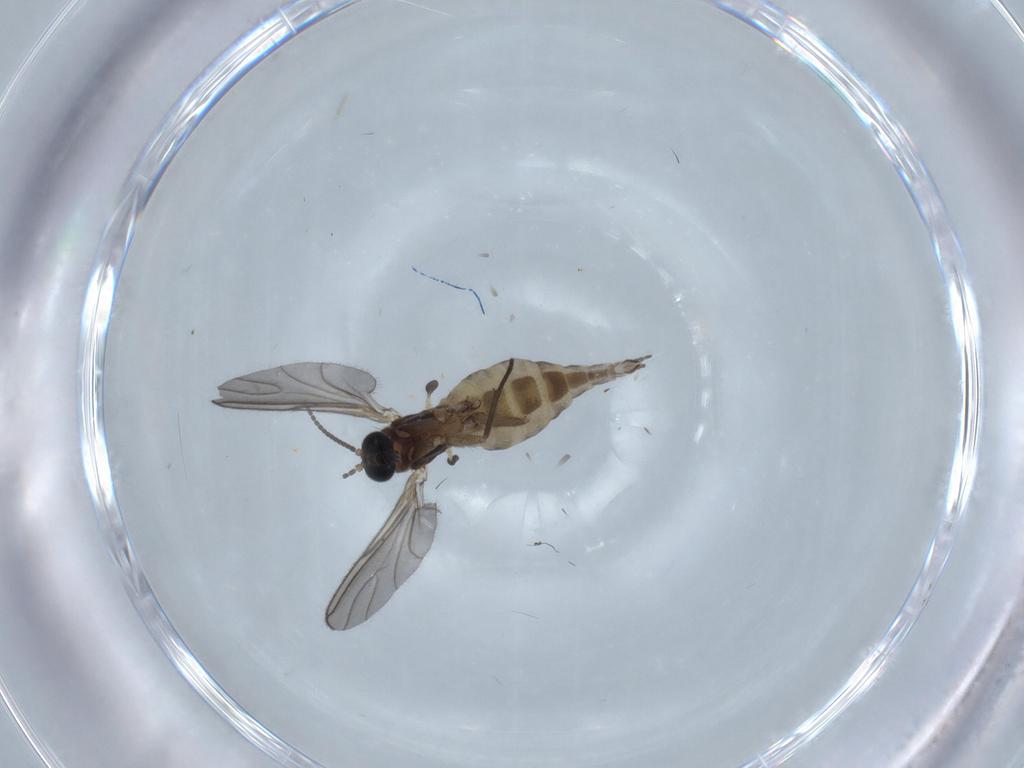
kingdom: Animalia
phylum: Arthropoda
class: Insecta
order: Diptera
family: Sciaridae
